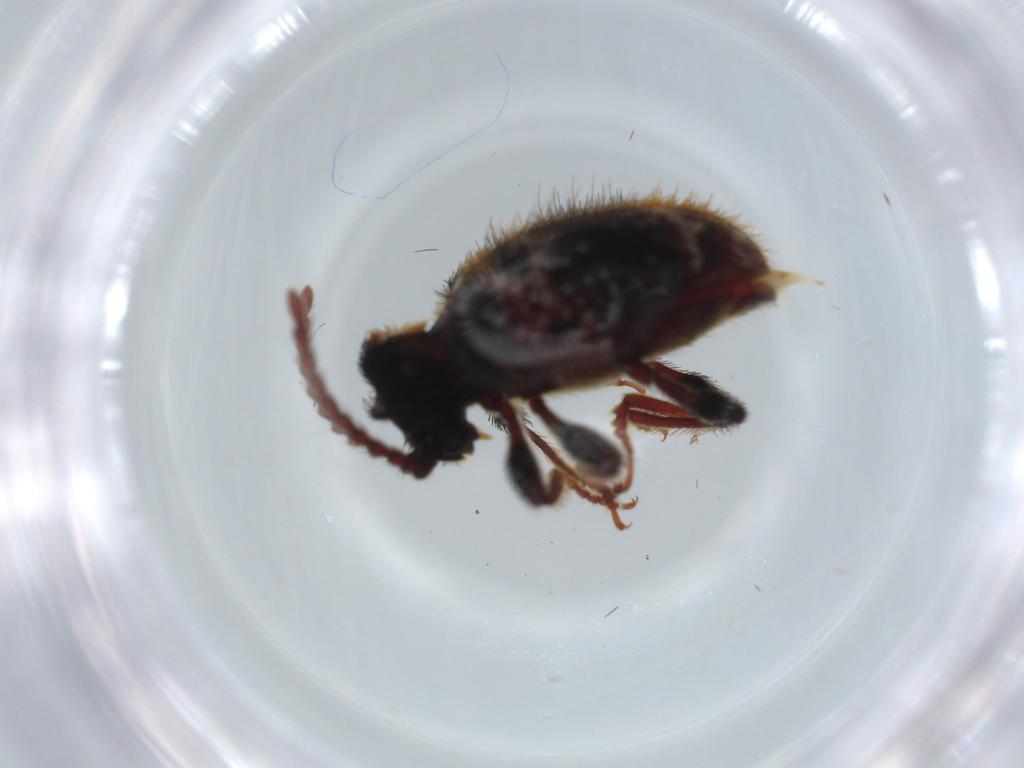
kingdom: Animalia
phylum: Arthropoda
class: Insecta
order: Coleoptera
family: Ptinidae
